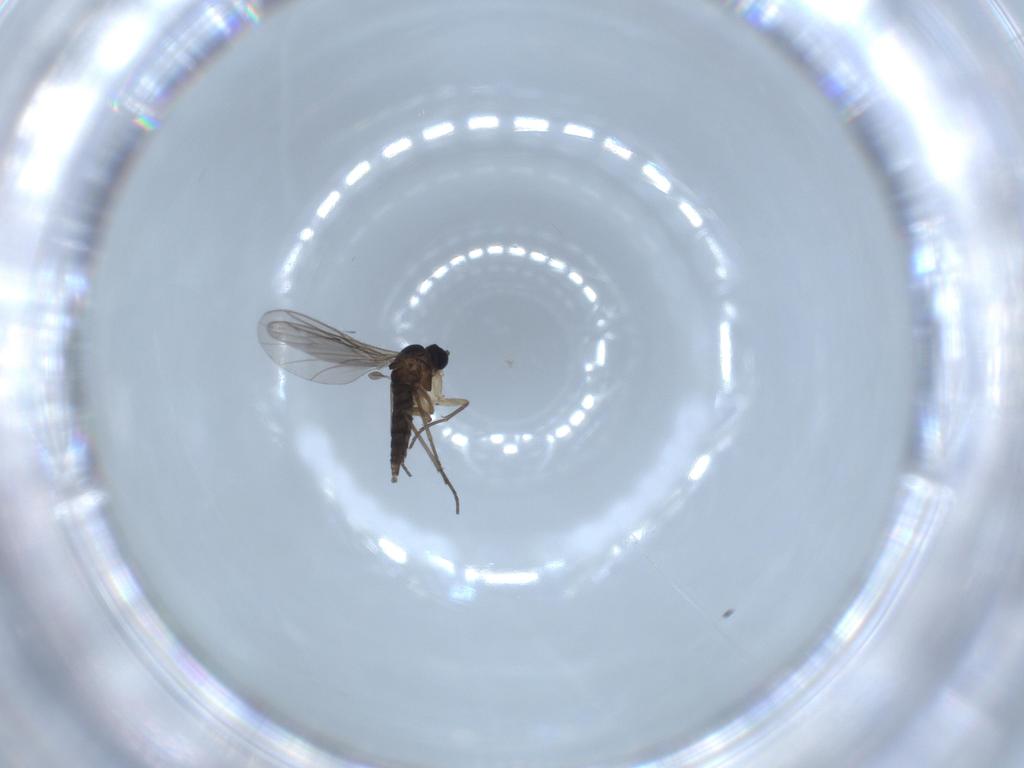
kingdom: Animalia
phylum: Arthropoda
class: Insecta
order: Diptera
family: Sciaridae
